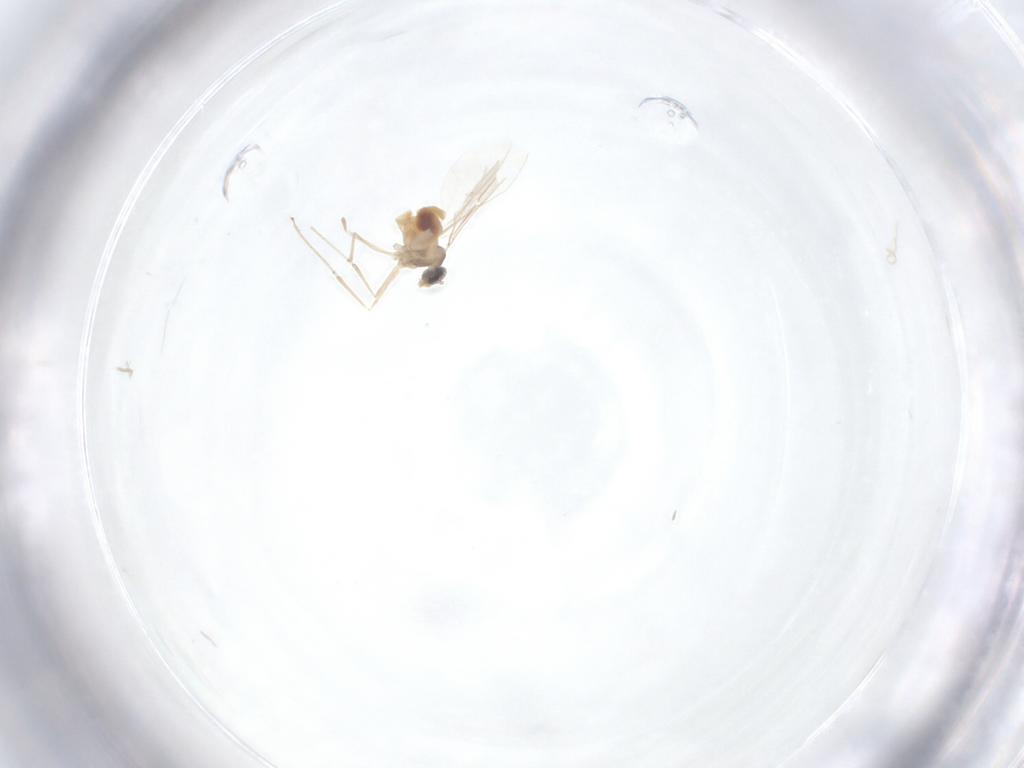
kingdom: Animalia
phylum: Arthropoda
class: Insecta
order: Diptera
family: Cecidomyiidae
